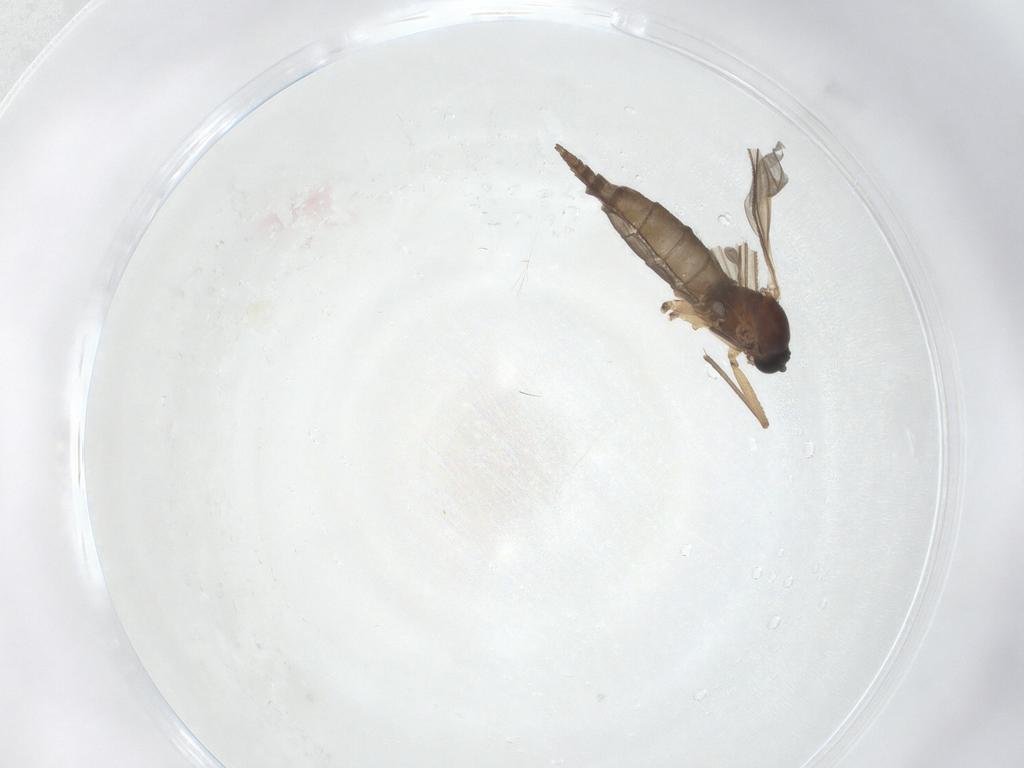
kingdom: Animalia
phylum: Arthropoda
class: Insecta
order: Diptera
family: Sciaridae
